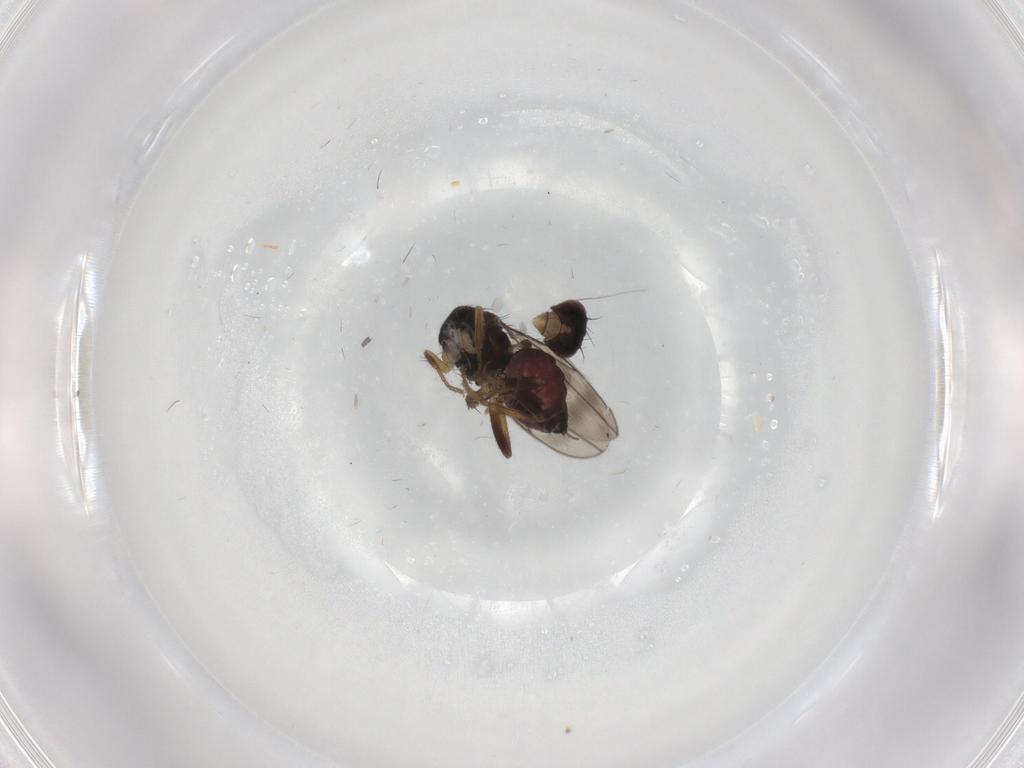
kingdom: Animalia
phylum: Arthropoda
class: Insecta
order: Diptera
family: Sphaeroceridae
